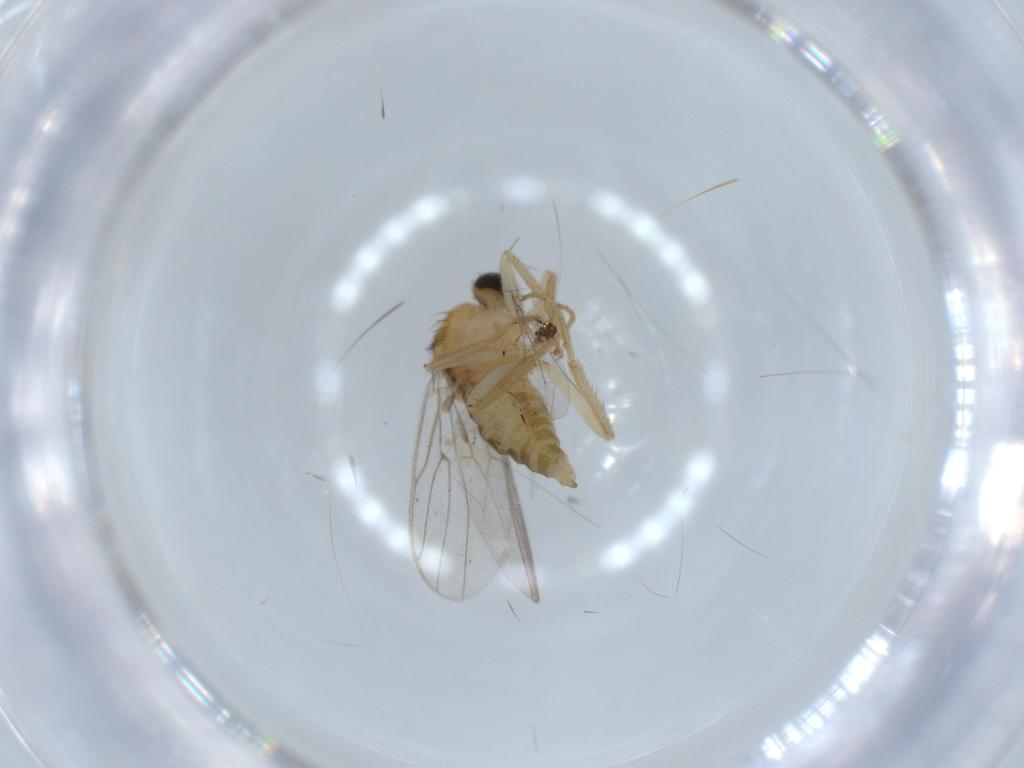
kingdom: Animalia
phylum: Arthropoda
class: Insecta
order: Diptera
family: Hybotidae
